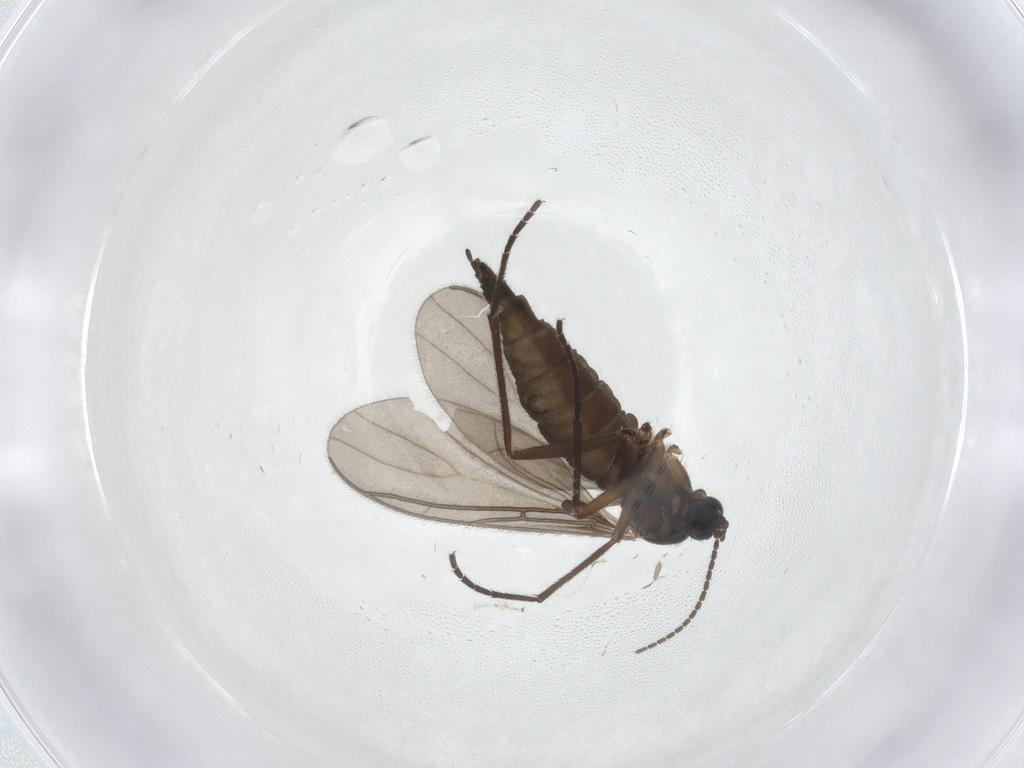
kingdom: Animalia
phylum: Arthropoda
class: Insecta
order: Diptera
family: Sciaridae
